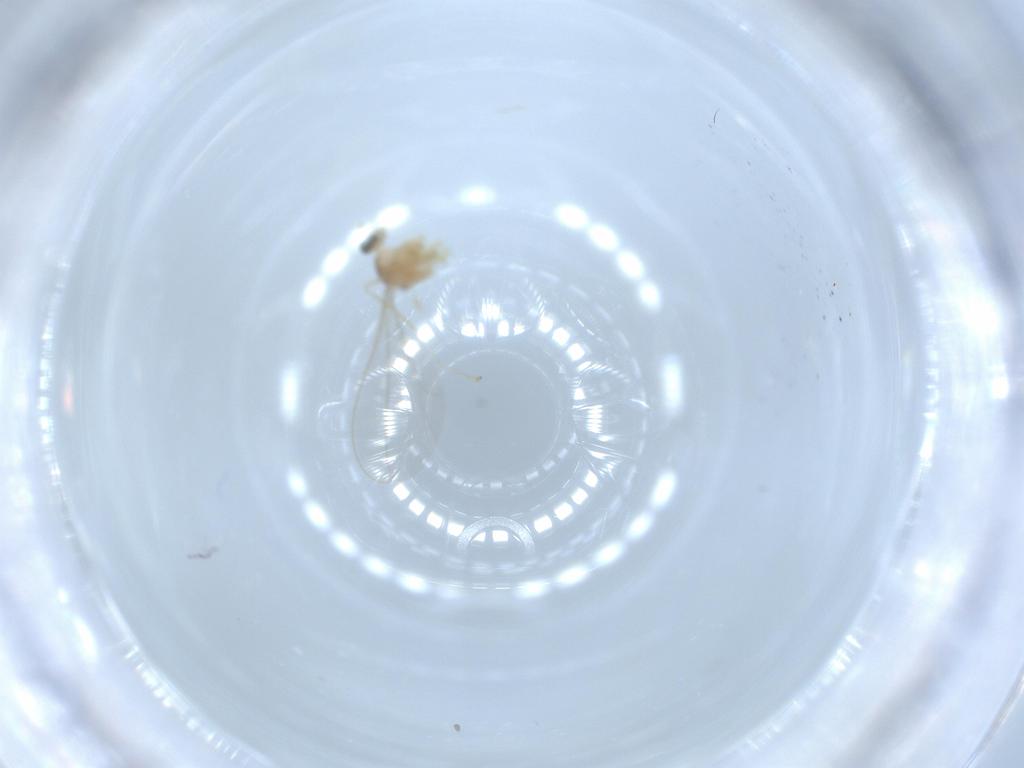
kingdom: Animalia
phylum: Arthropoda
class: Insecta
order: Diptera
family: Cecidomyiidae
